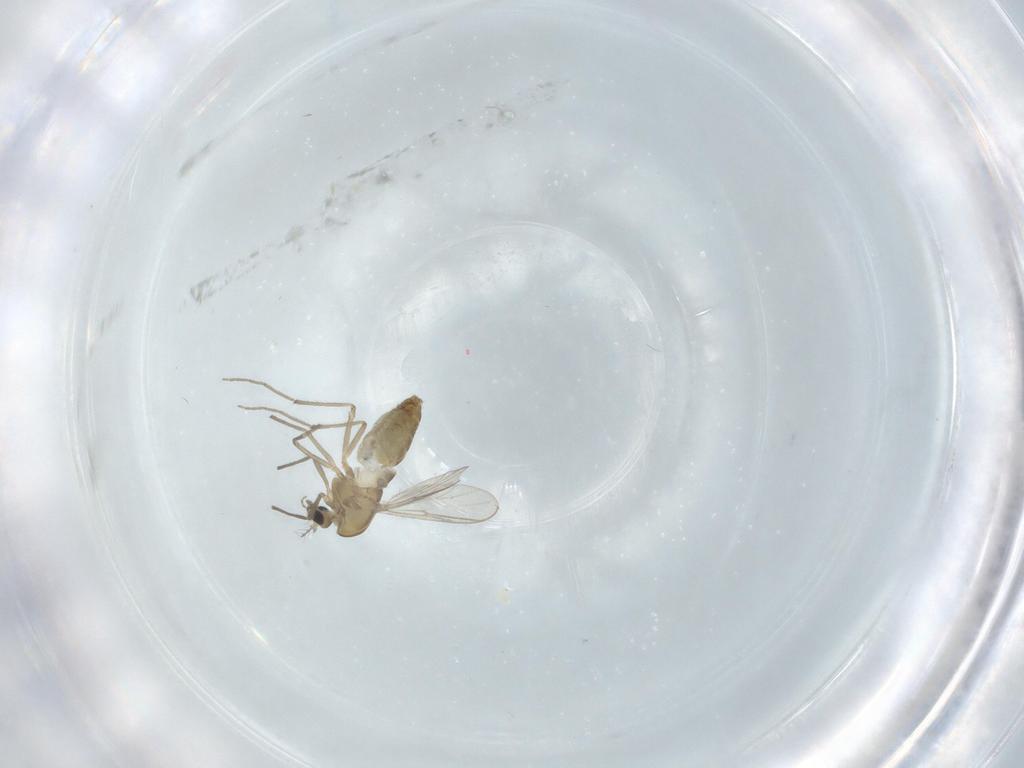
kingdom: Animalia
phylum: Arthropoda
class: Insecta
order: Diptera
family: Chironomidae
